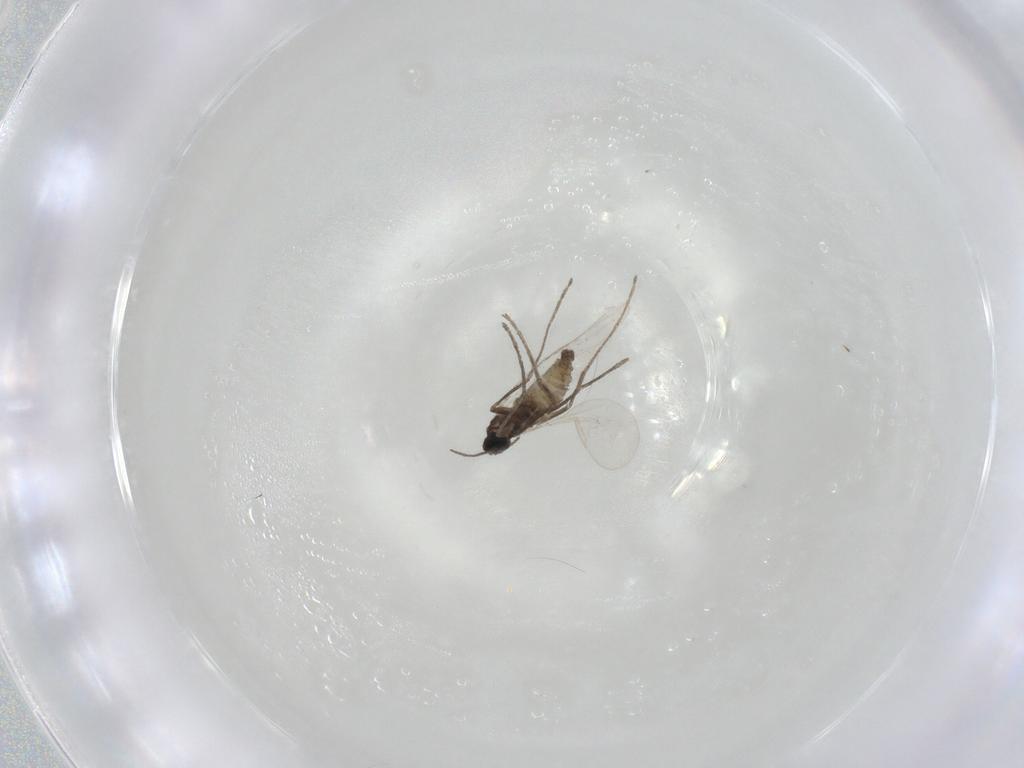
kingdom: Animalia
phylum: Arthropoda
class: Insecta
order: Diptera
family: Cecidomyiidae
